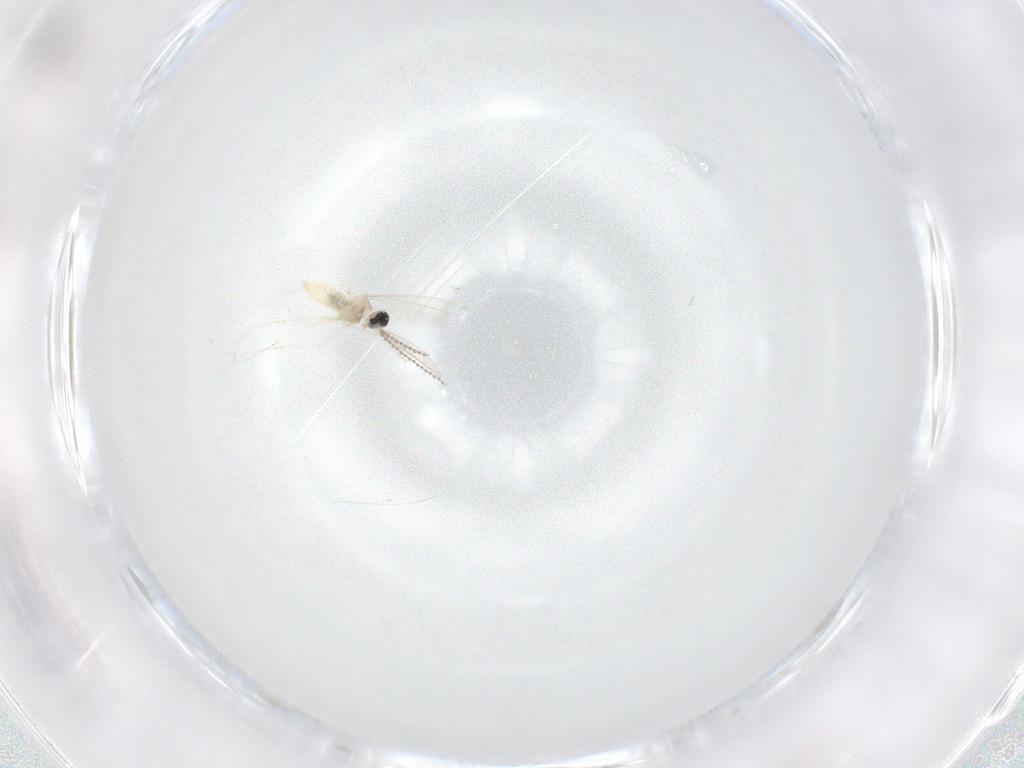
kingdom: Animalia
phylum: Arthropoda
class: Insecta
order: Diptera
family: Cecidomyiidae
